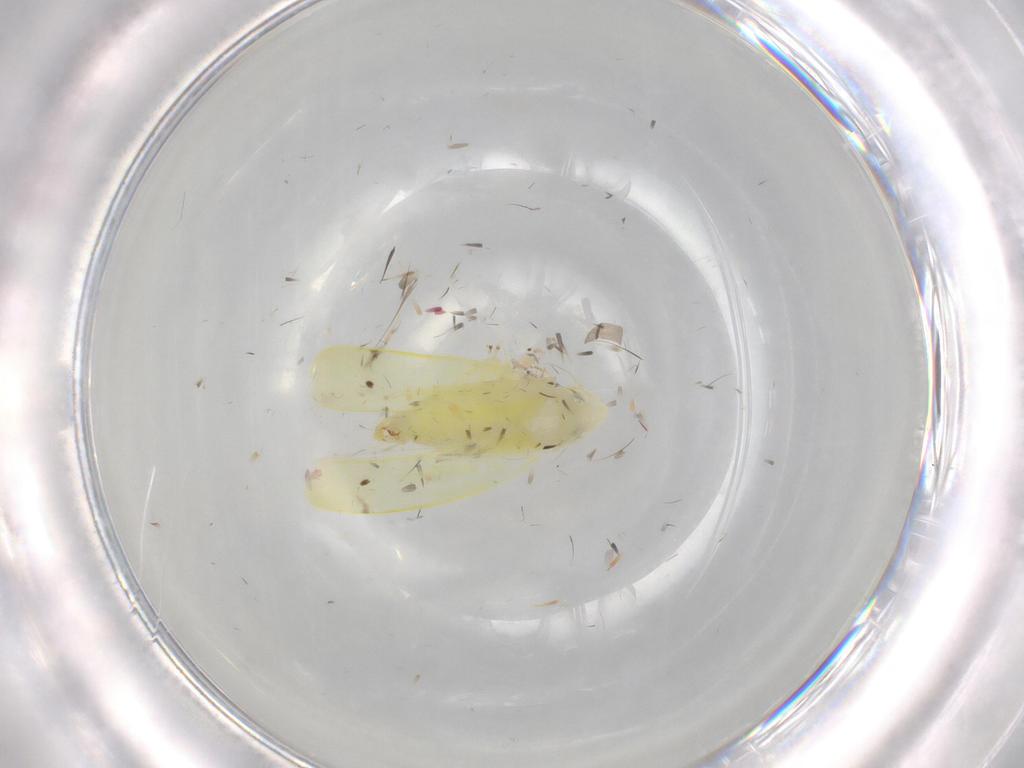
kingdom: Animalia
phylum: Arthropoda
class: Insecta
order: Hemiptera
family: Cicadellidae
